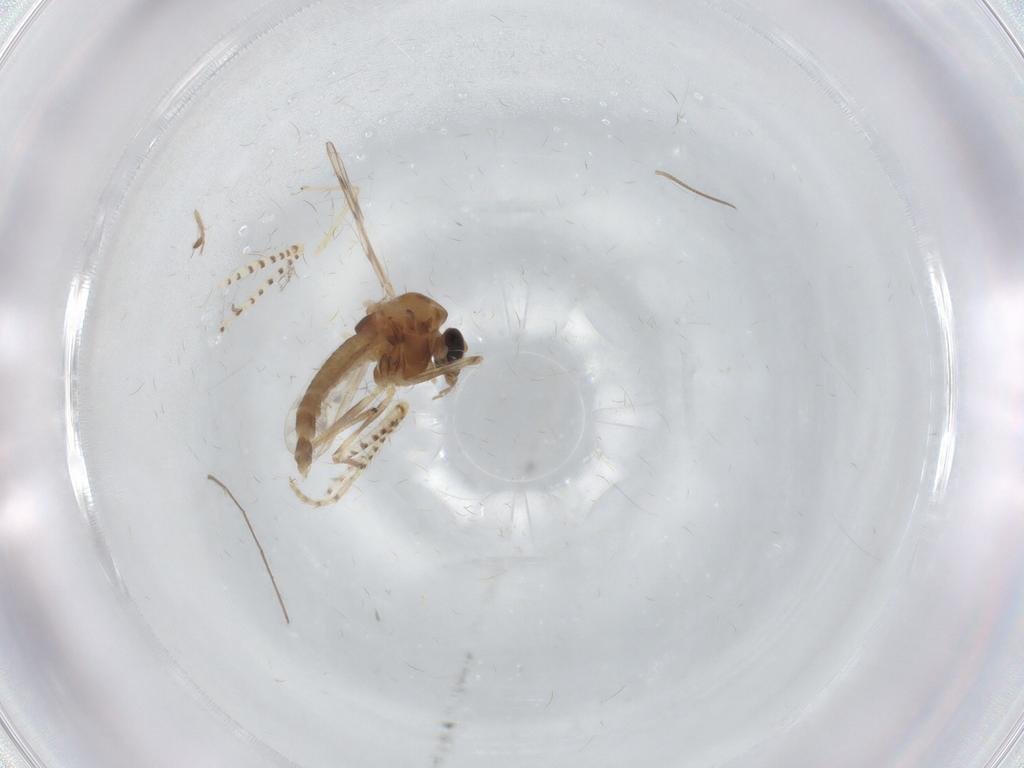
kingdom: Animalia
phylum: Arthropoda
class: Insecta
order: Diptera
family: Chironomidae
